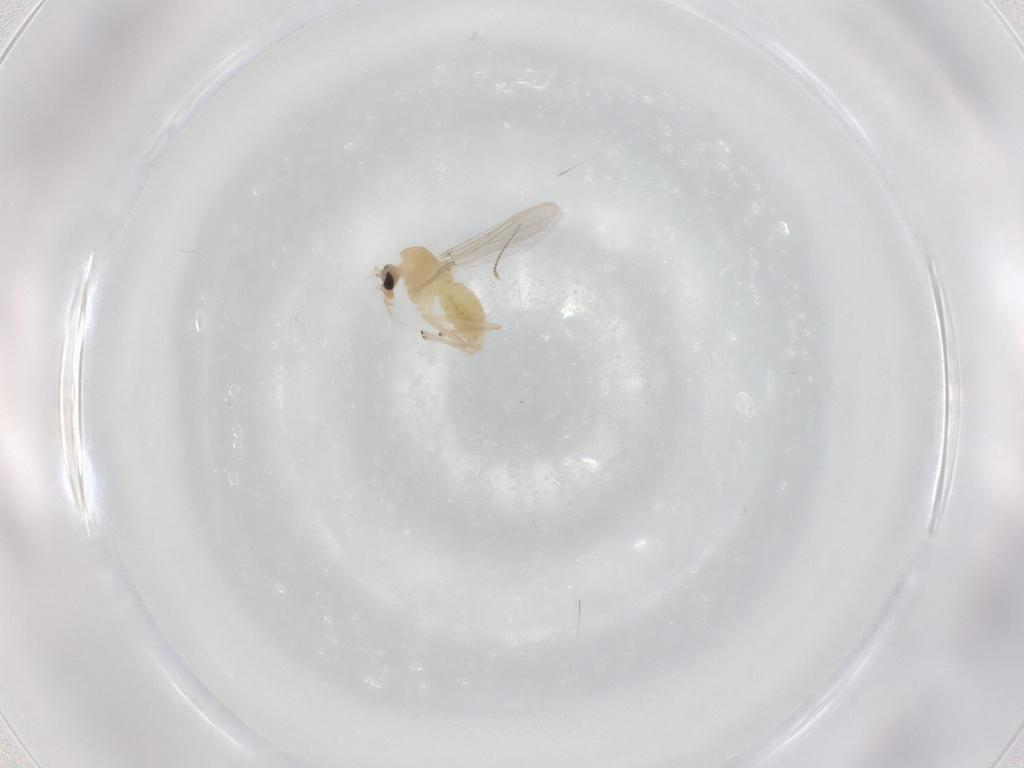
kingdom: Animalia
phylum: Arthropoda
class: Insecta
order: Diptera
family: Chironomidae
